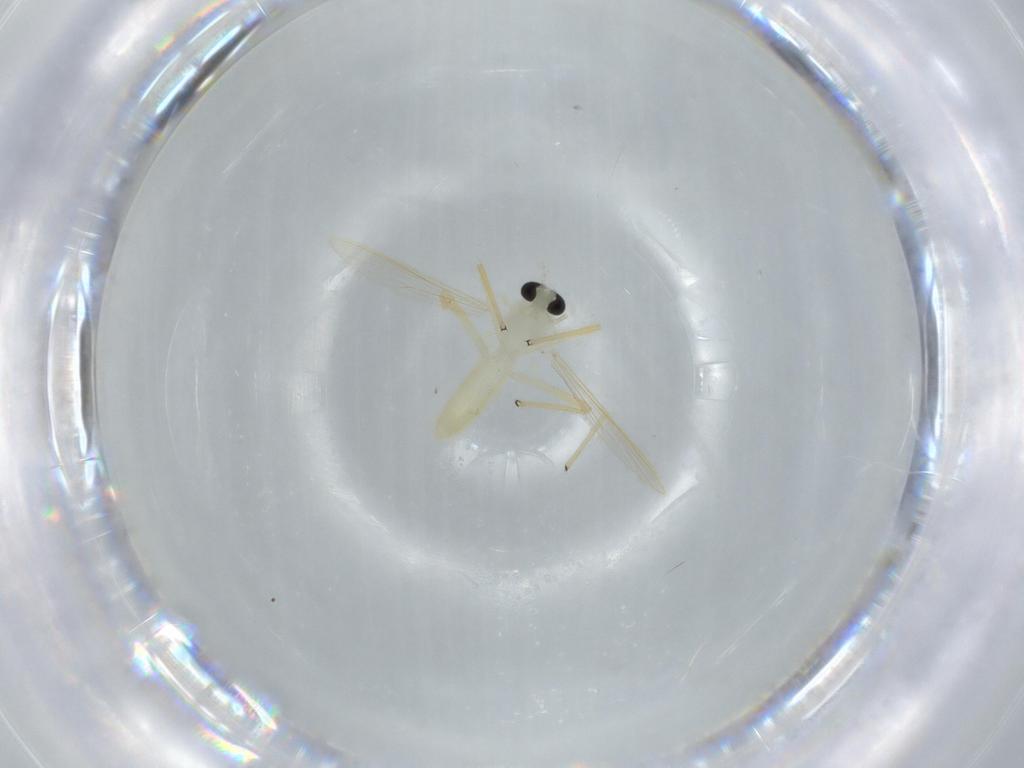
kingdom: Animalia
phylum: Arthropoda
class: Insecta
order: Diptera
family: Chironomidae
